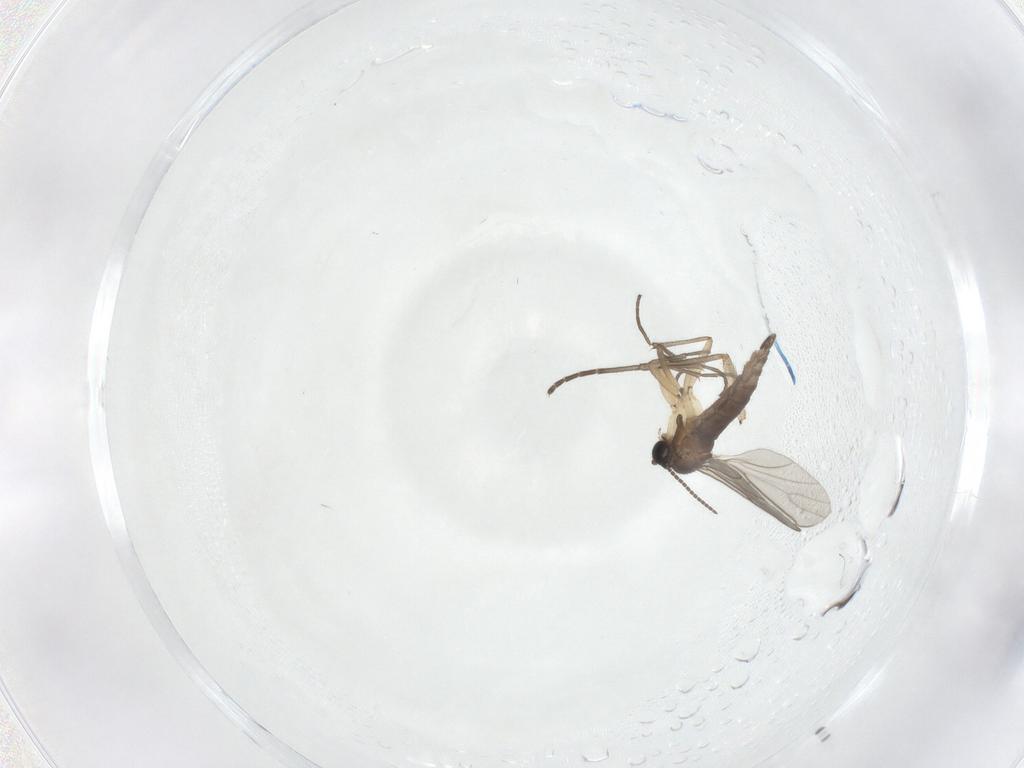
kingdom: Animalia
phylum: Arthropoda
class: Insecta
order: Diptera
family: Sciaridae
